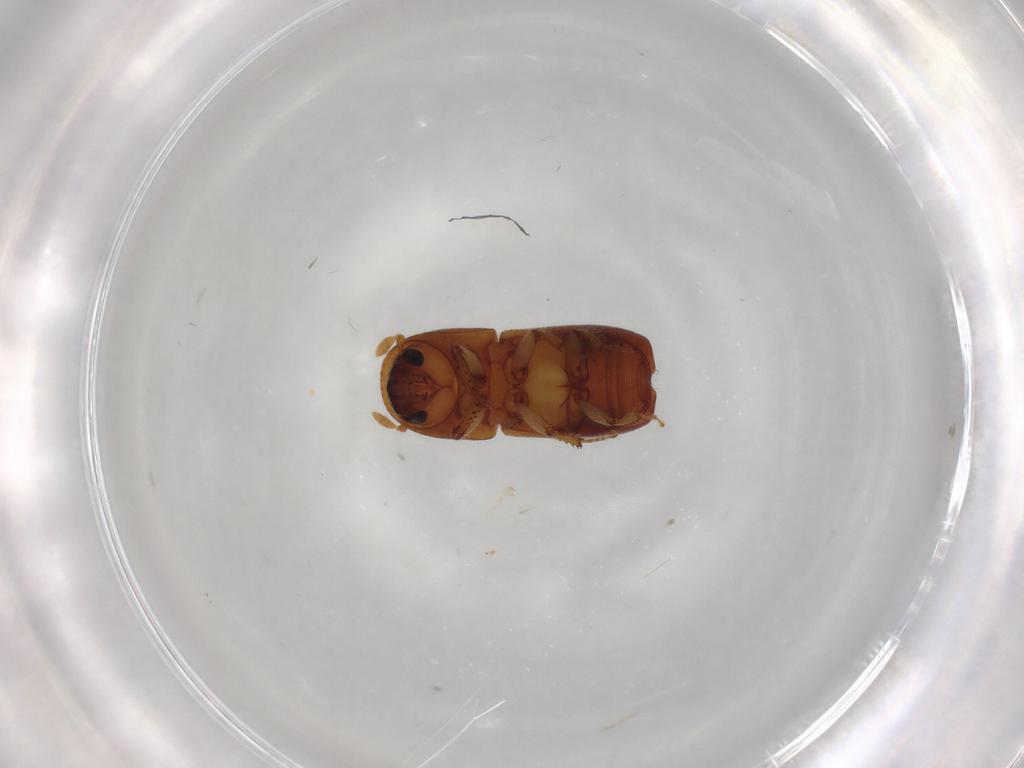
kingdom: Animalia
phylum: Arthropoda
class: Insecta
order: Coleoptera
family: Curculionidae
